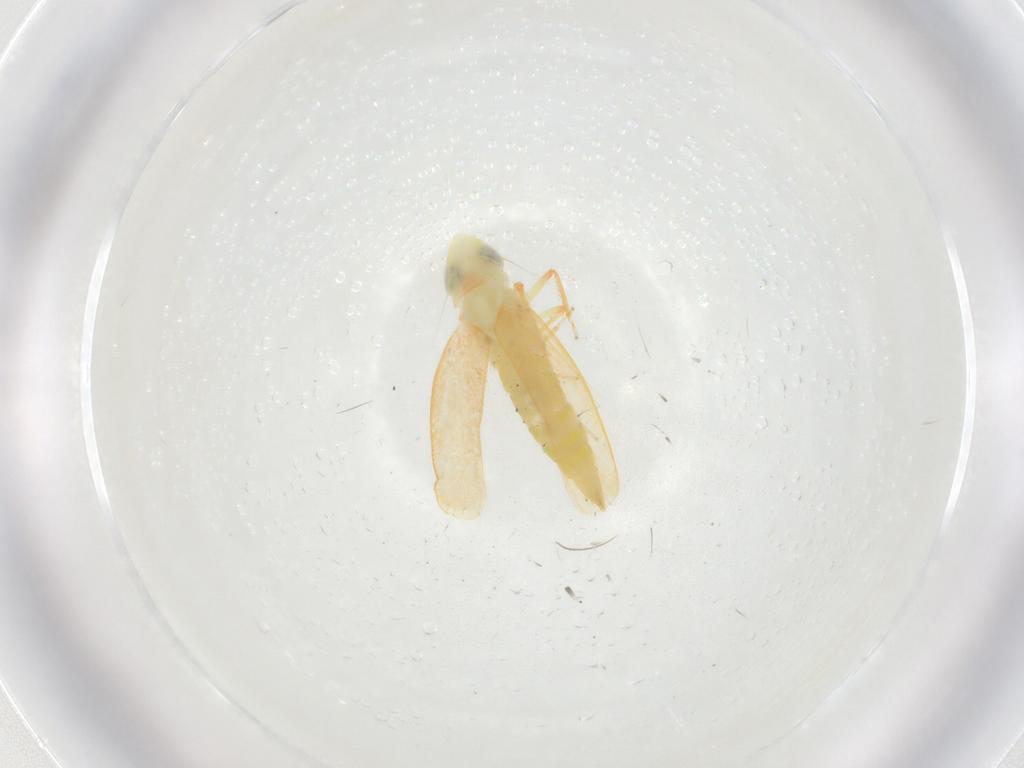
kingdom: Animalia
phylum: Arthropoda
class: Insecta
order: Hemiptera
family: Cicadellidae
